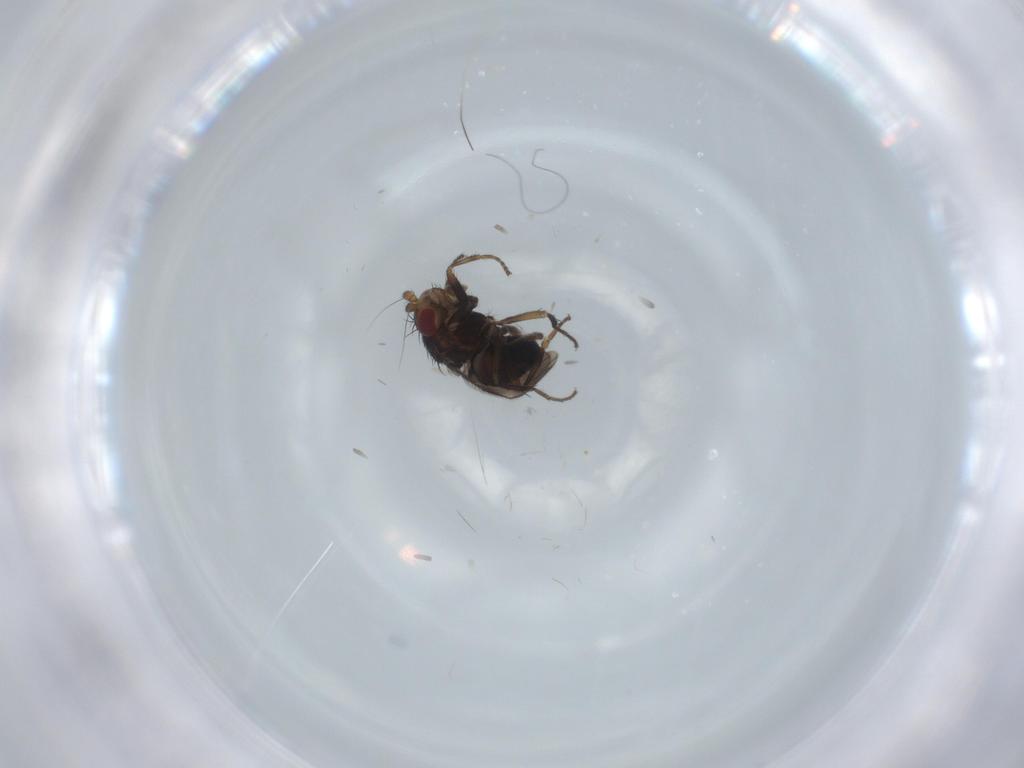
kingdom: Animalia
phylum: Arthropoda
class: Insecta
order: Diptera
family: Sphaeroceridae
